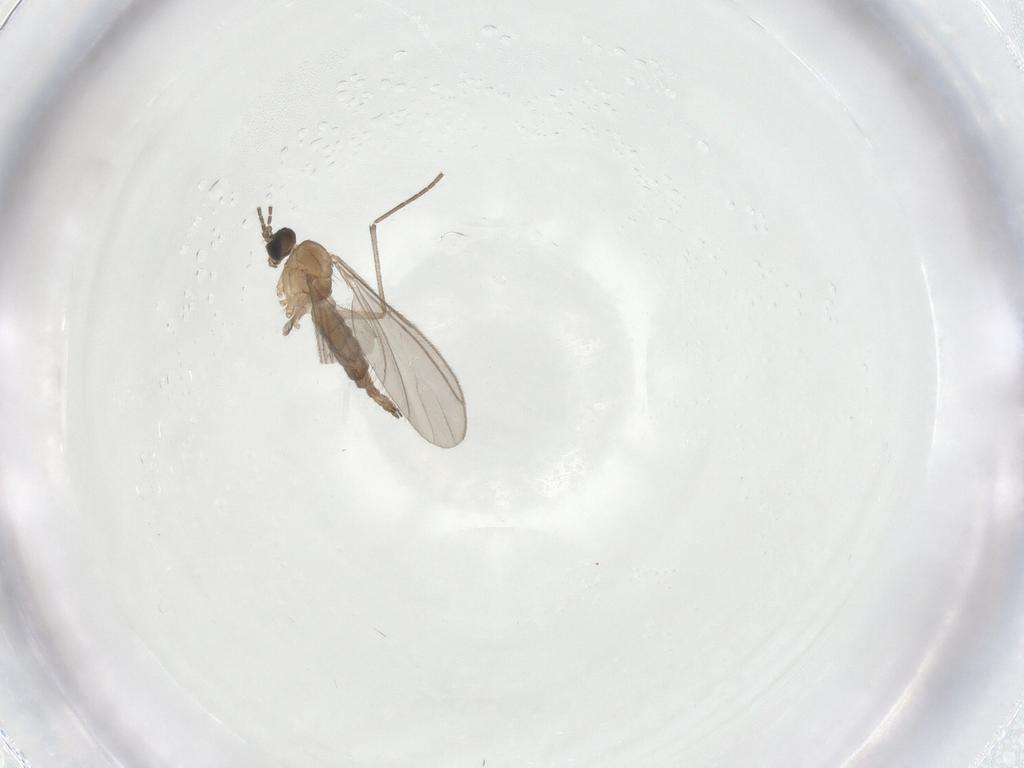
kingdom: Animalia
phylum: Arthropoda
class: Insecta
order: Diptera
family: Sciaridae
